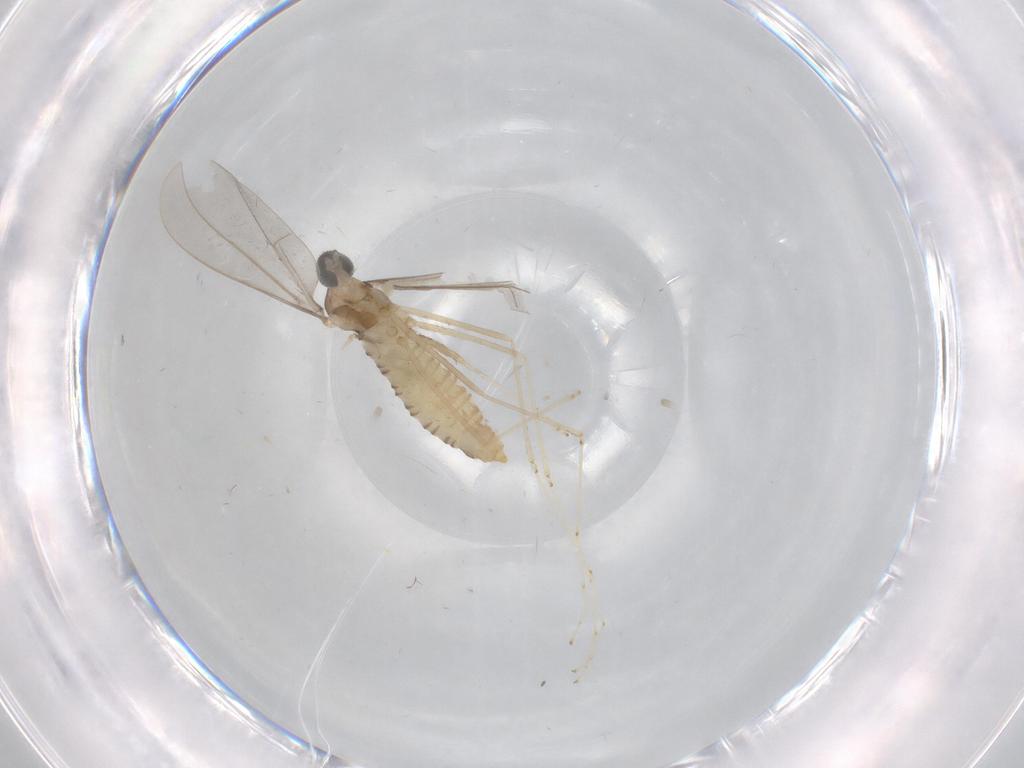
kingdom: Animalia
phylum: Arthropoda
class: Insecta
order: Diptera
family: Cecidomyiidae
